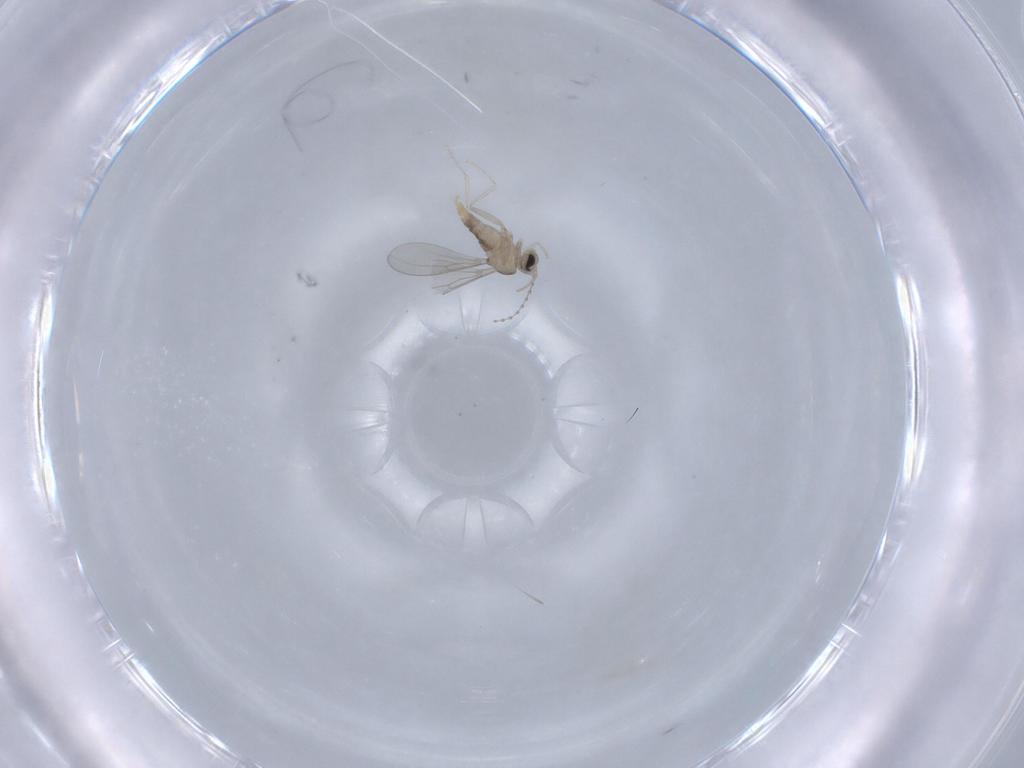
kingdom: Animalia
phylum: Arthropoda
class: Insecta
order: Diptera
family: Cecidomyiidae
